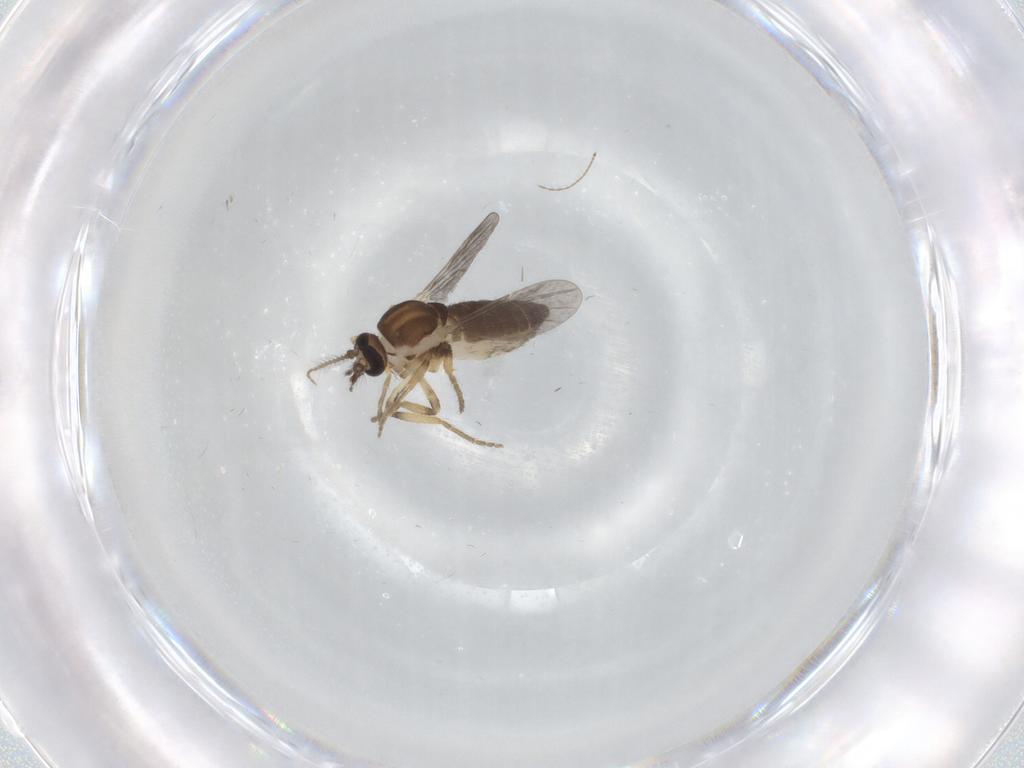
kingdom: Animalia
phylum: Arthropoda
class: Insecta
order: Diptera
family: Ceratopogonidae
